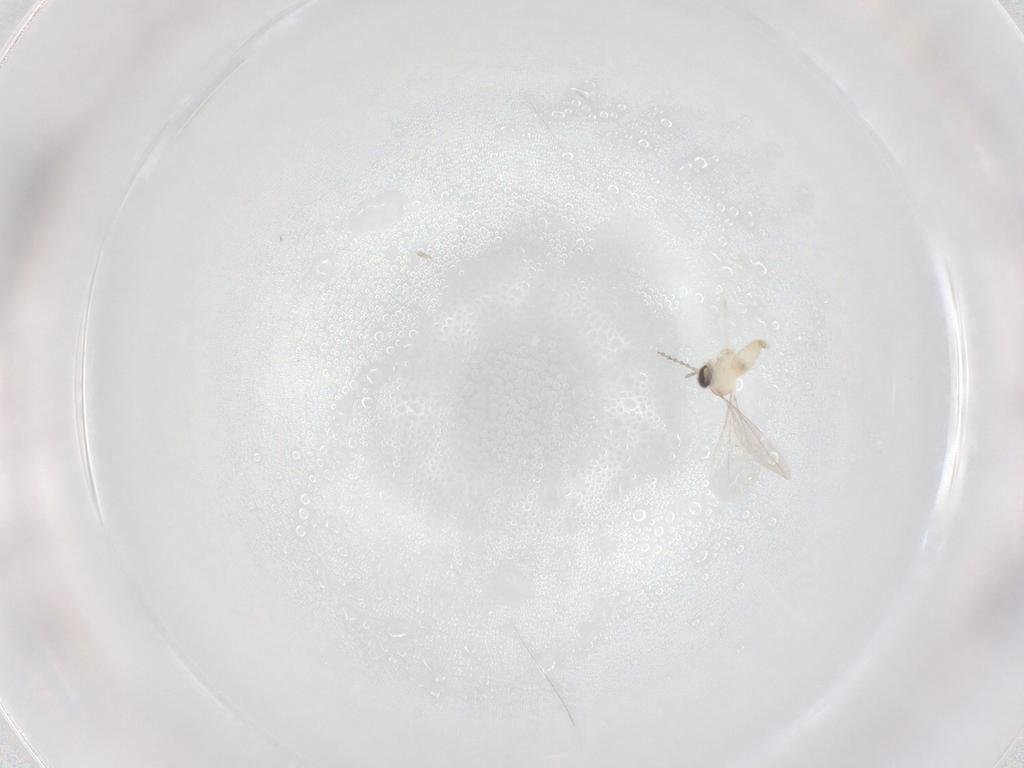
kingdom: Animalia
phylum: Arthropoda
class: Insecta
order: Diptera
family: Cecidomyiidae
